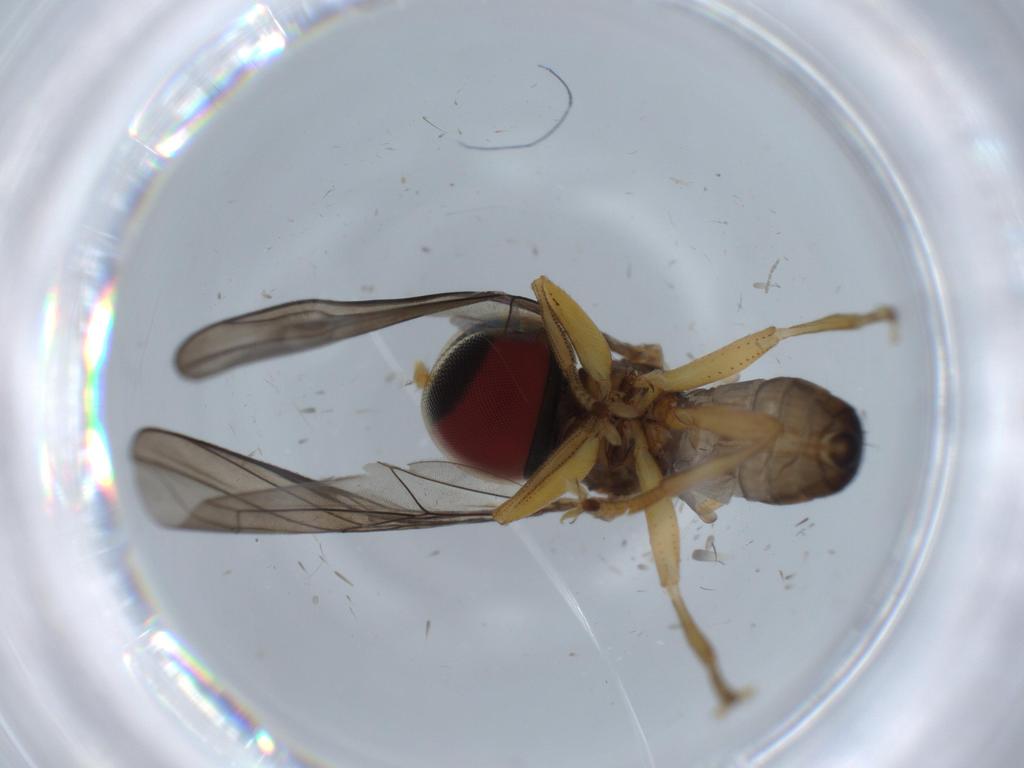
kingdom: Animalia
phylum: Arthropoda
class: Insecta
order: Diptera
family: Pipunculidae
